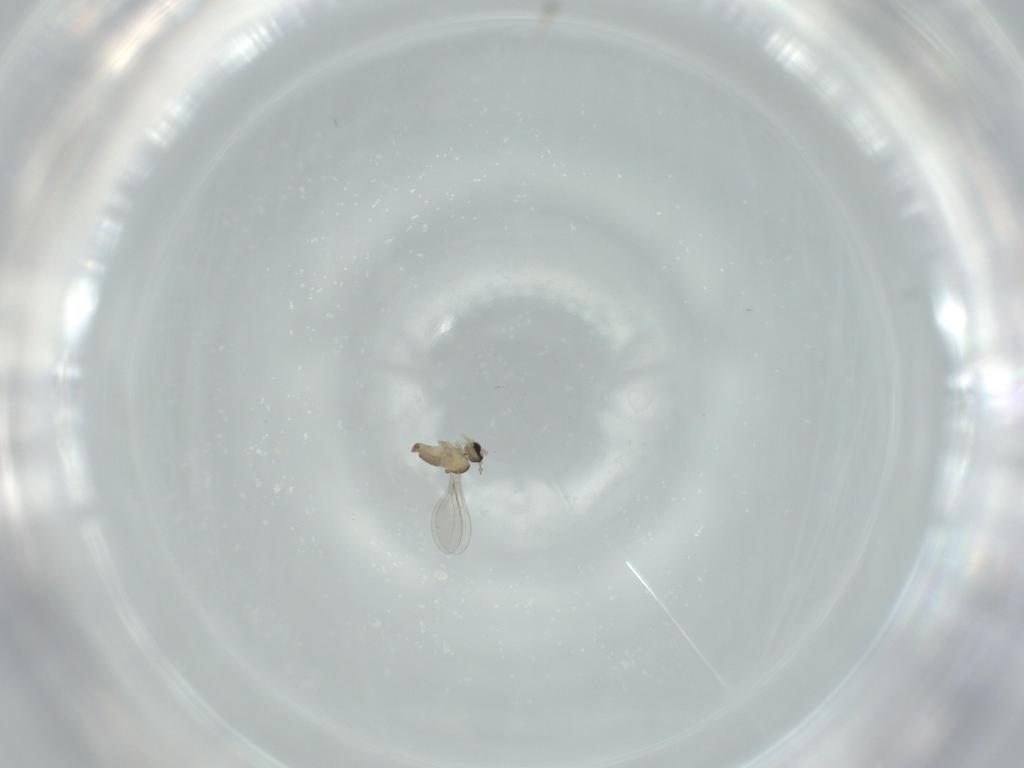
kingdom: Animalia
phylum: Arthropoda
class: Insecta
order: Diptera
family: Cecidomyiidae
